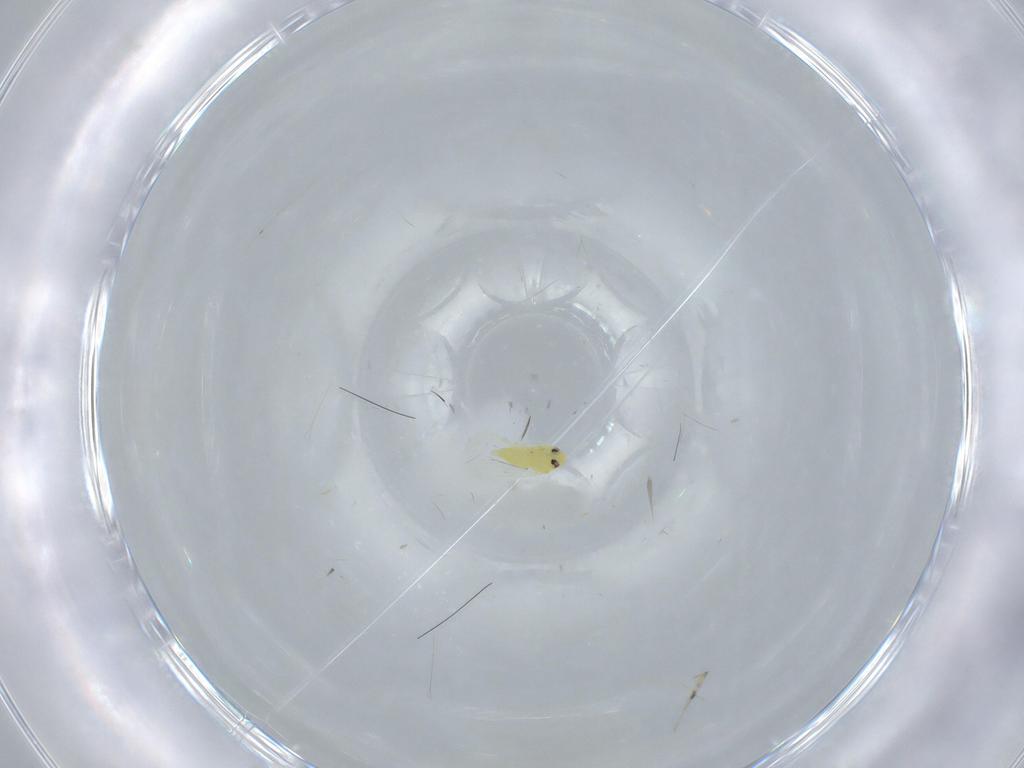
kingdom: Animalia
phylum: Arthropoda
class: Insecta
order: Hemiptera
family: Aleyrodidae
